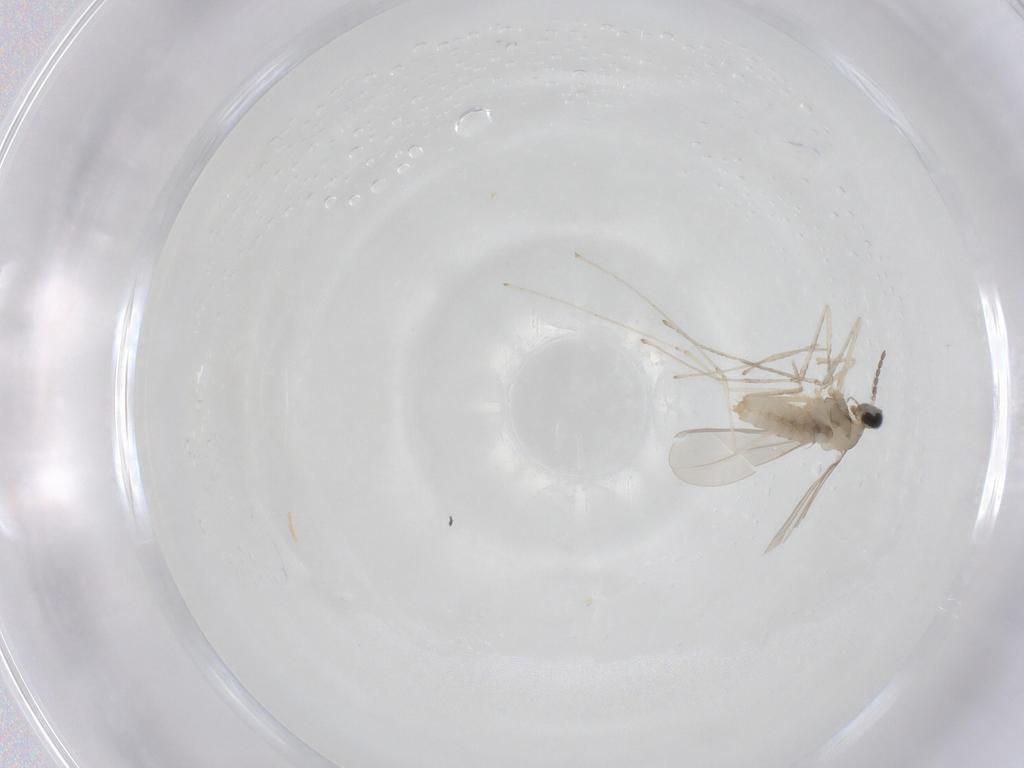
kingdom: Animalia
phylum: Arthropoda
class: Insecta
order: Diptera
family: Cecidomyiidae
